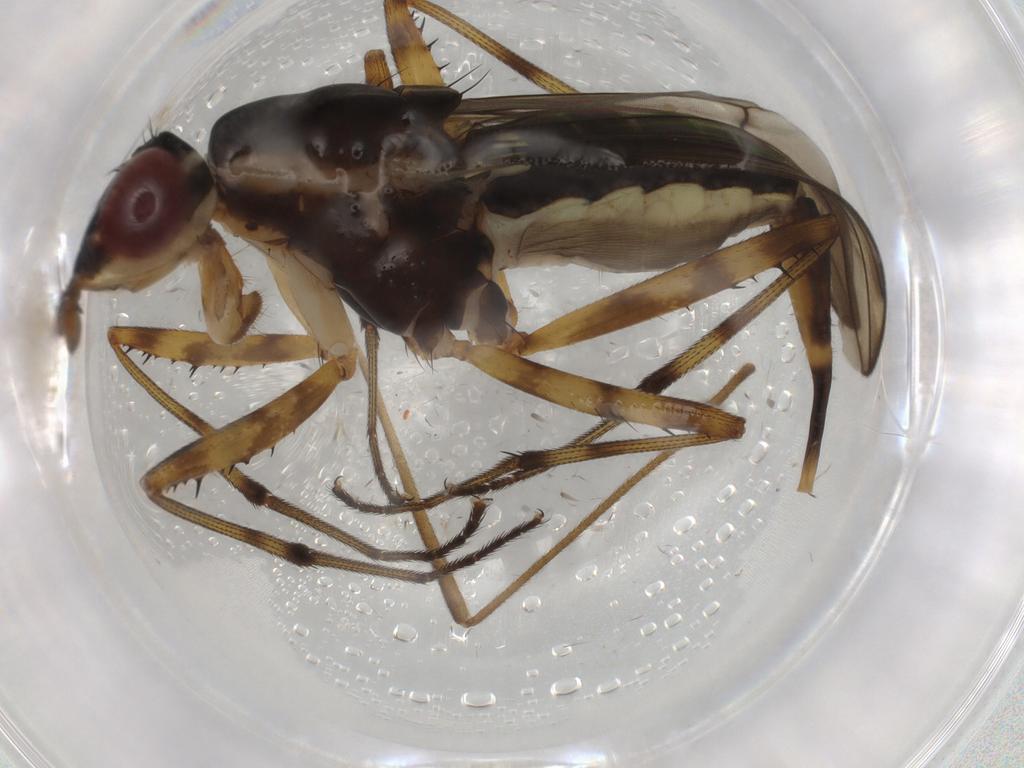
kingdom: Animalia
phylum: Arthropoda
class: Insecta
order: Diptera
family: Limoniidae
